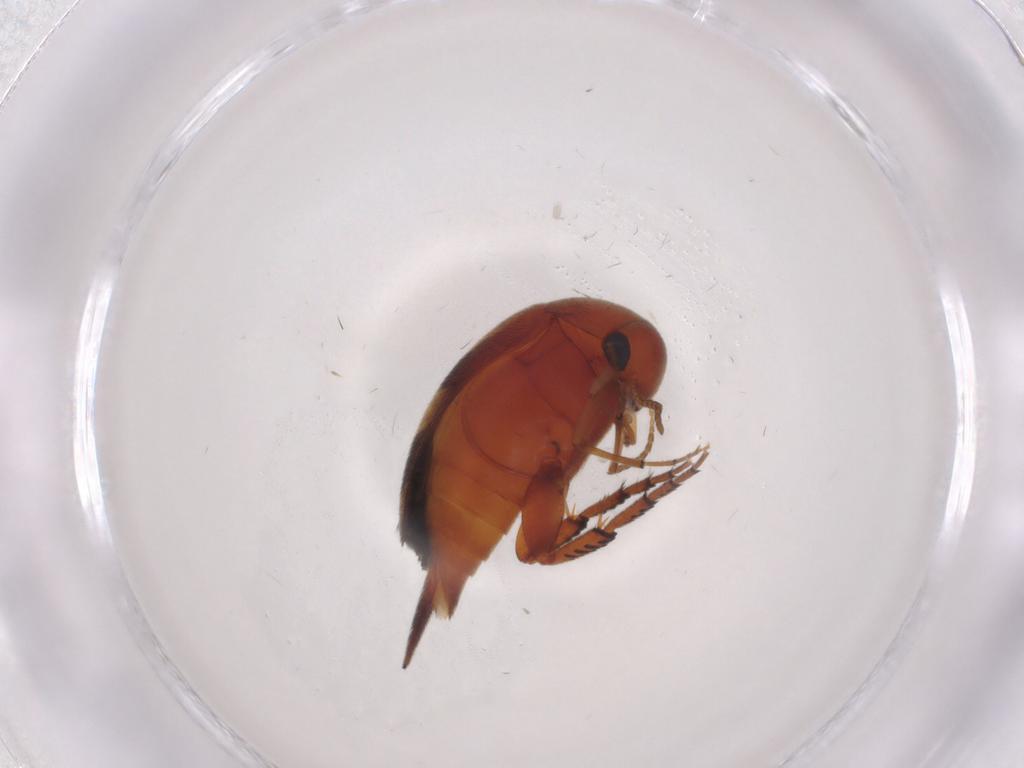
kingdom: Animalia
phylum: Arthropoda
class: Insecta
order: Coleoptera
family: Mordellidae
